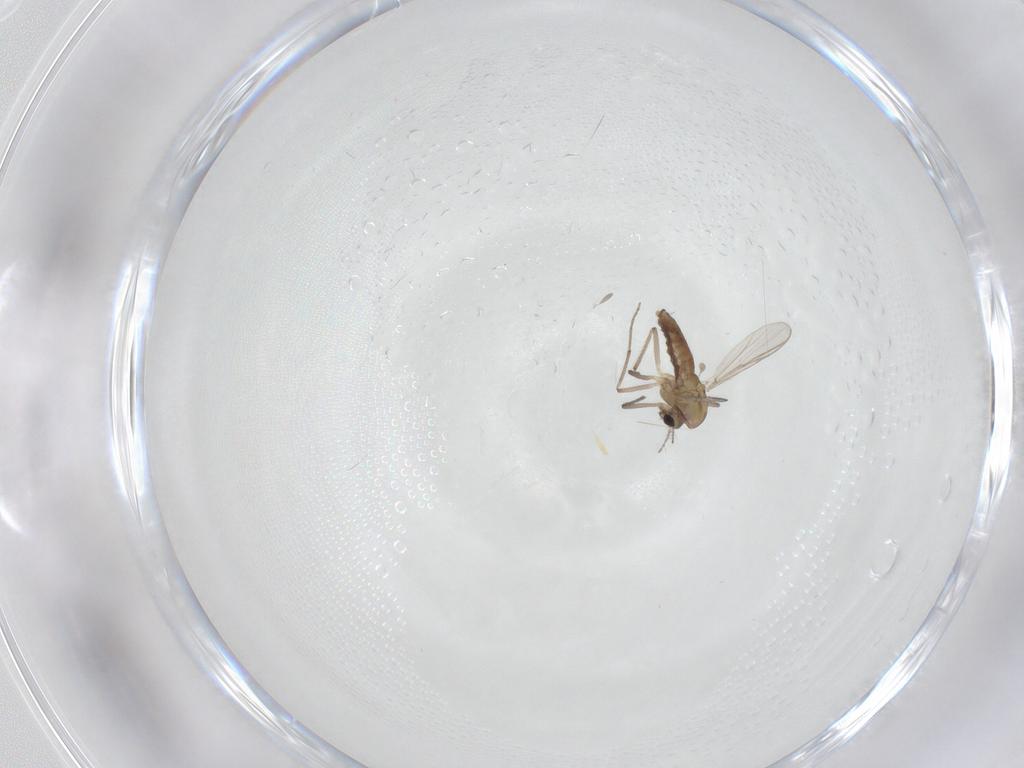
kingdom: Animalia
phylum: Arthropoda
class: Insecta
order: Diptera
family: Chironomidae
